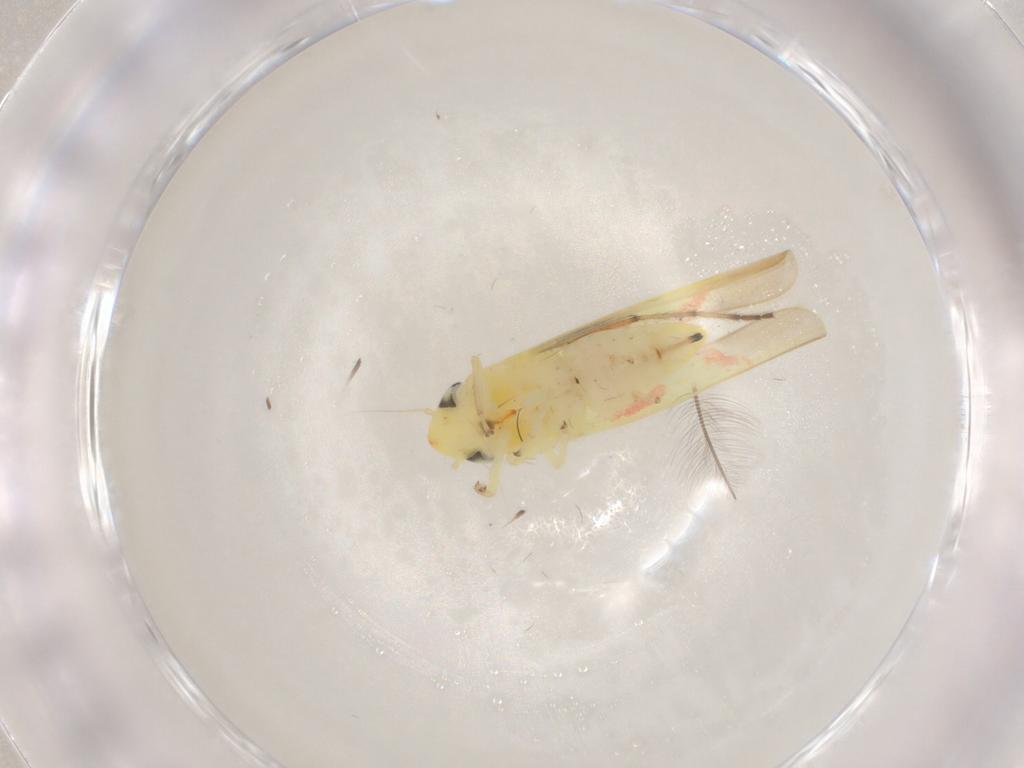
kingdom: Animalia
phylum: Arthropoda
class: Insecta
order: Hemiptera
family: Cicadellidae
